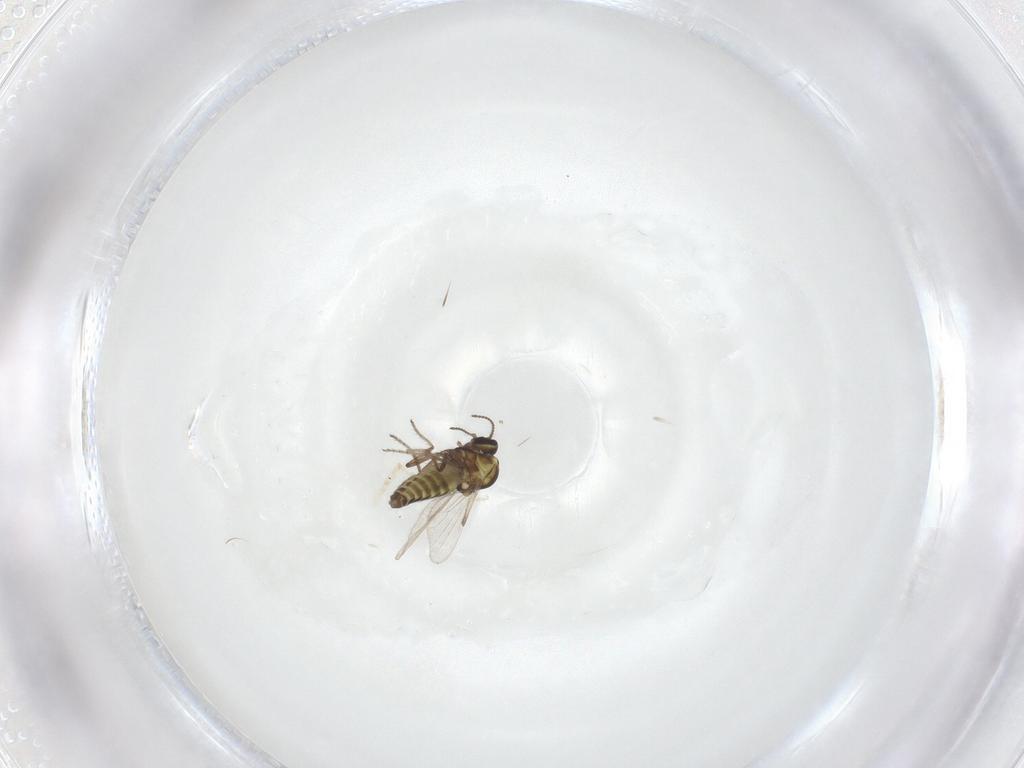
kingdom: Animalia
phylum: Arthropoda
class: Insecta
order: Diptera
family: Ceratopogonidae
